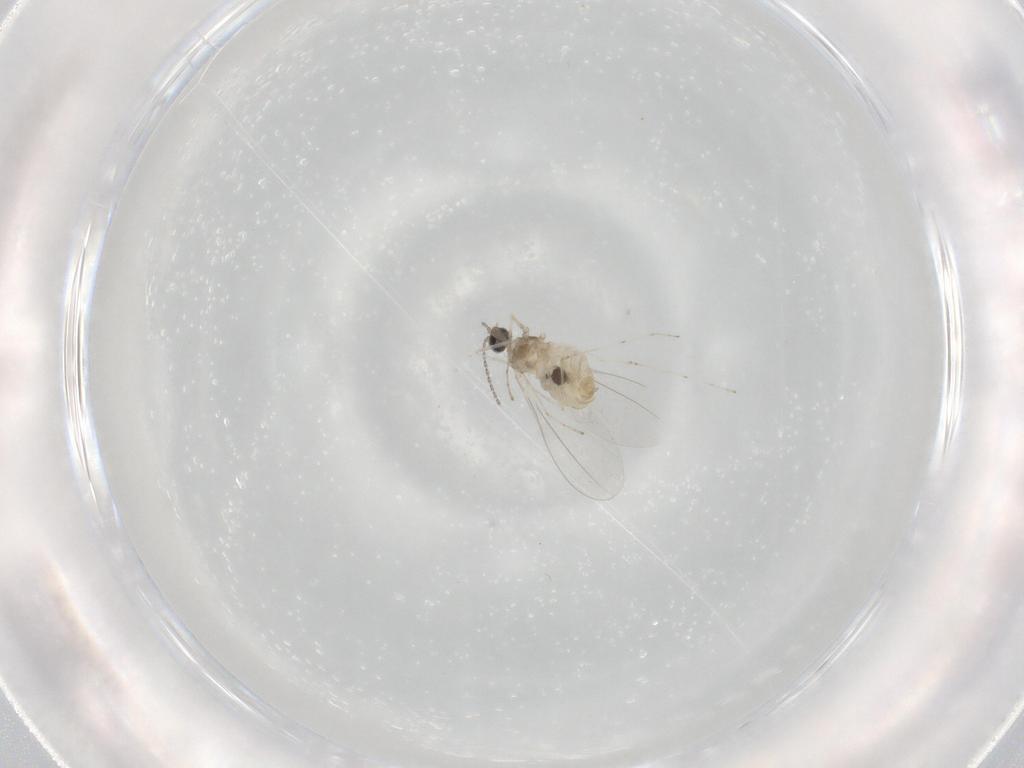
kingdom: Animalia
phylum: Arthropoda
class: Insecta
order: Diptera
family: Cecidomyiidae
